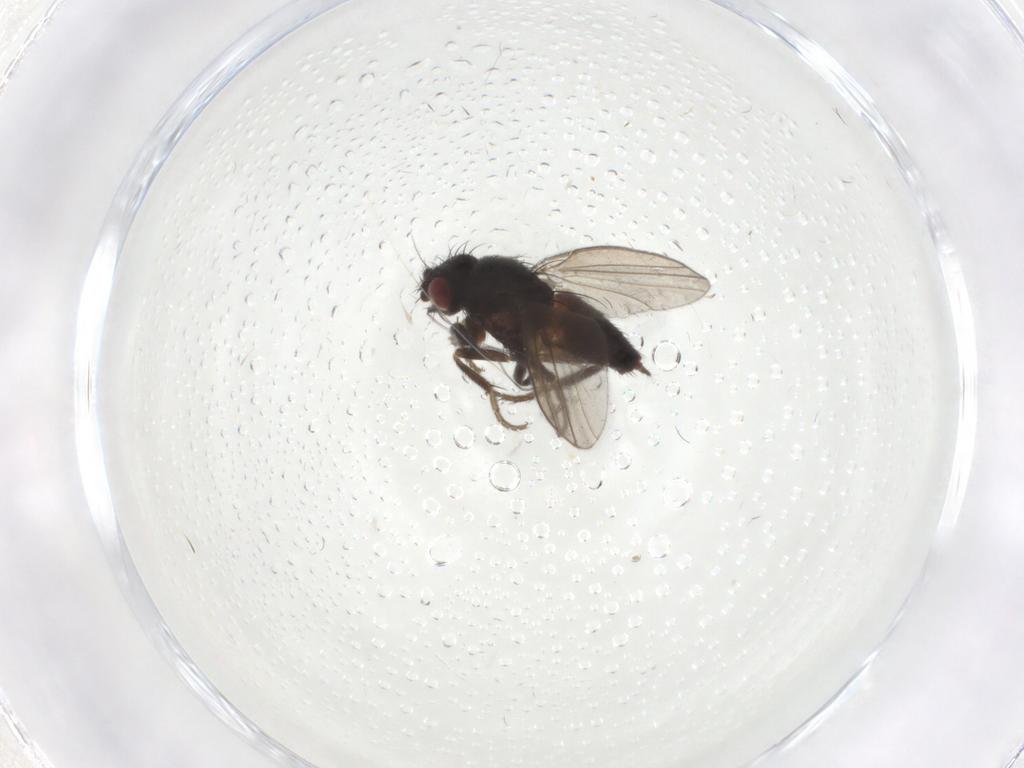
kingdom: Animalia
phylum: Arthropoda
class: Insecta
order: Diptera
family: Milichiidae
